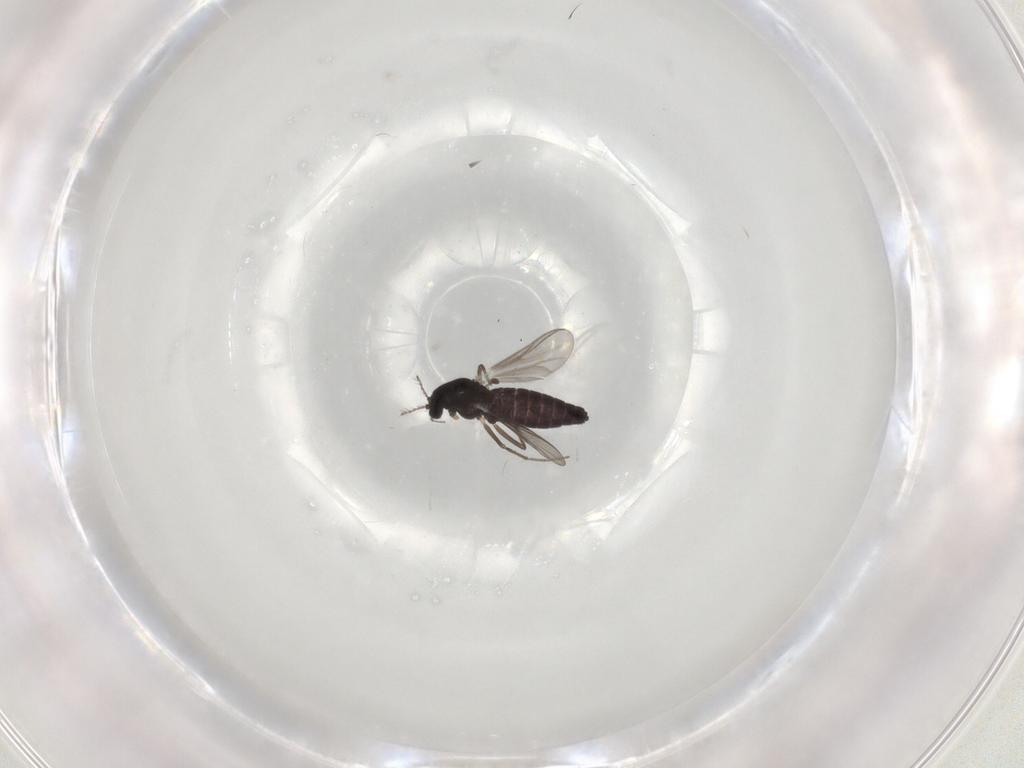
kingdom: Animalia
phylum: Arthropoda
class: Insecta
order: Diptera
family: Chironomidae
